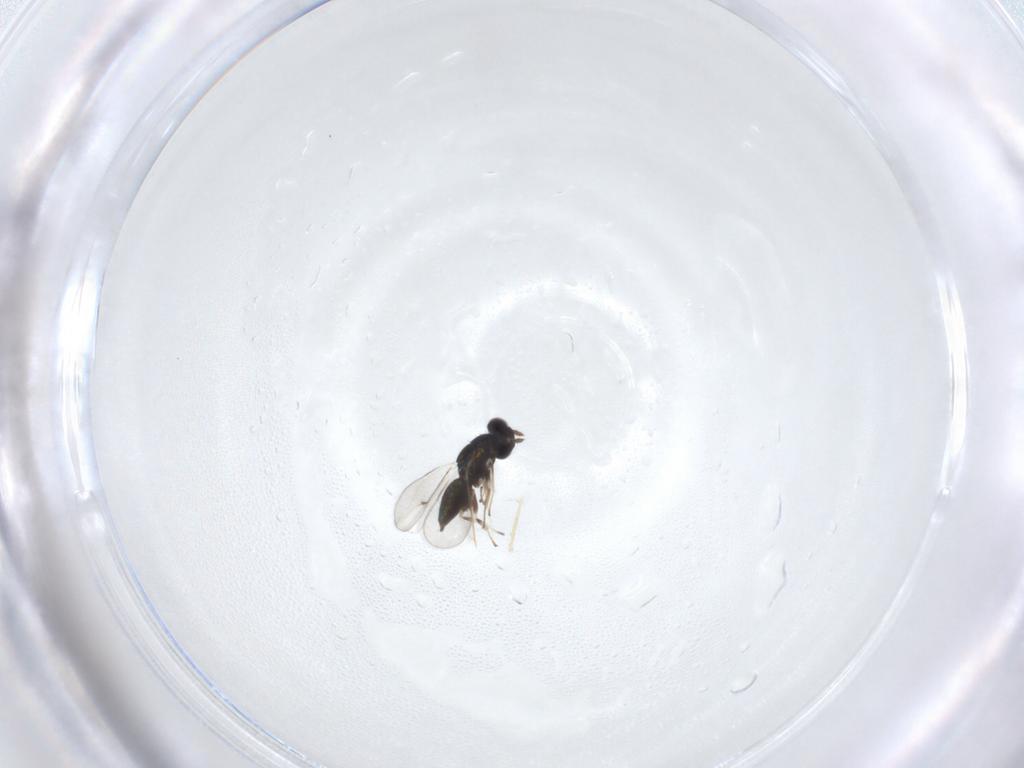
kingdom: Animalia
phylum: Arthropoda
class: Insecta
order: Hymenoptera
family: Eulophidae
